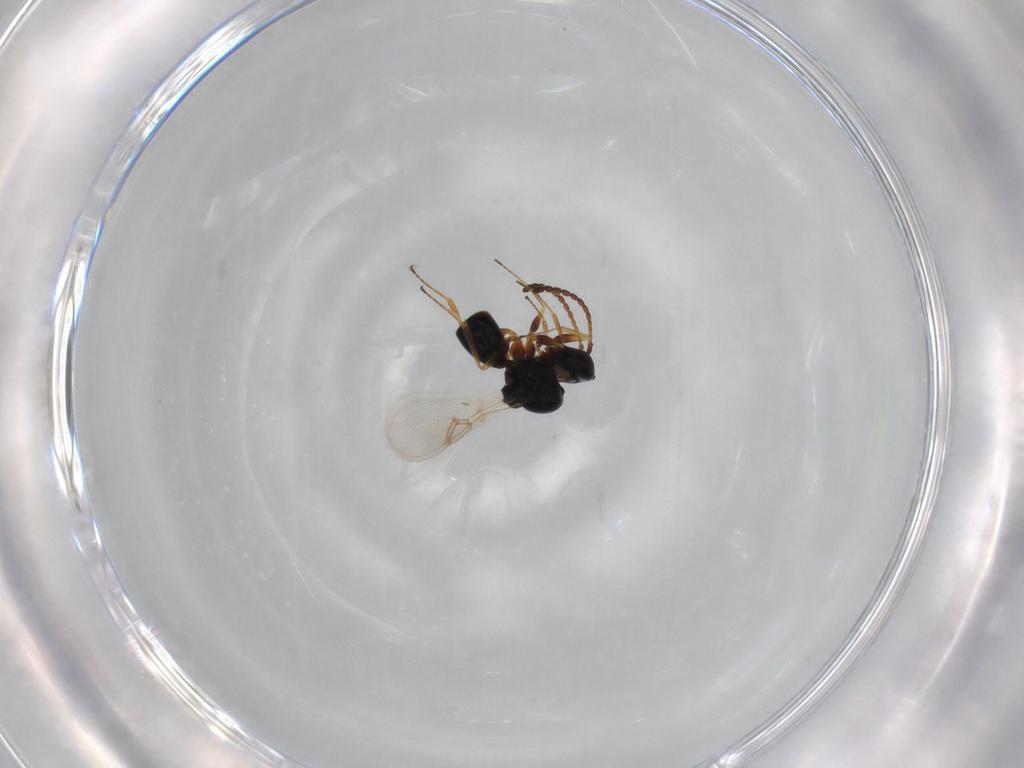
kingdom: Animalia
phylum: Arthropoda
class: Insecta
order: Hymenoptera
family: Figitidae
